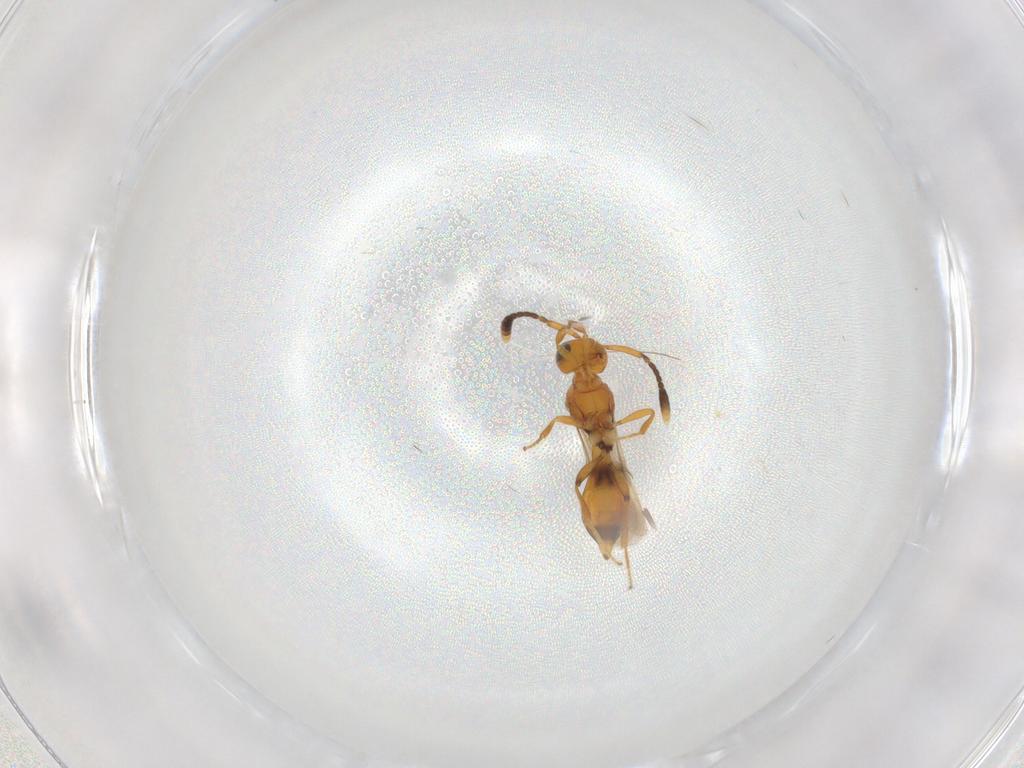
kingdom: Animalia
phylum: Arthropoda
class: Insecta
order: Hymenoptera
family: Scelionidae
